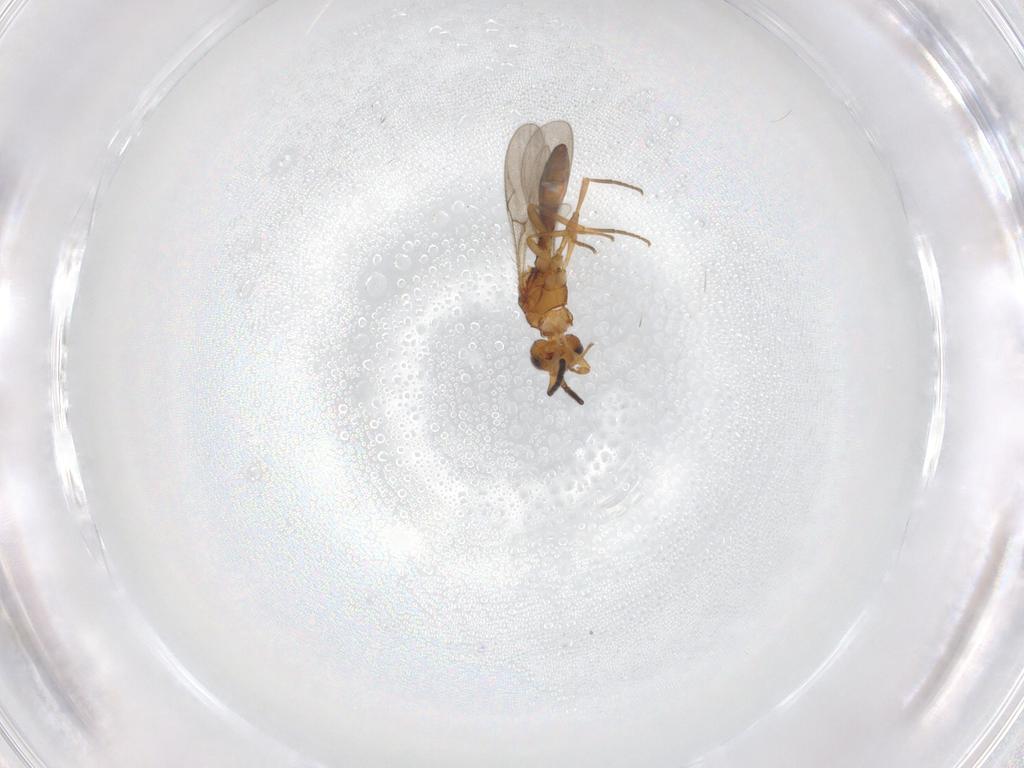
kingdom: Animalia
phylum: Arthropoda
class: Insecta
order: Hymenoptera
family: Scelionidae
